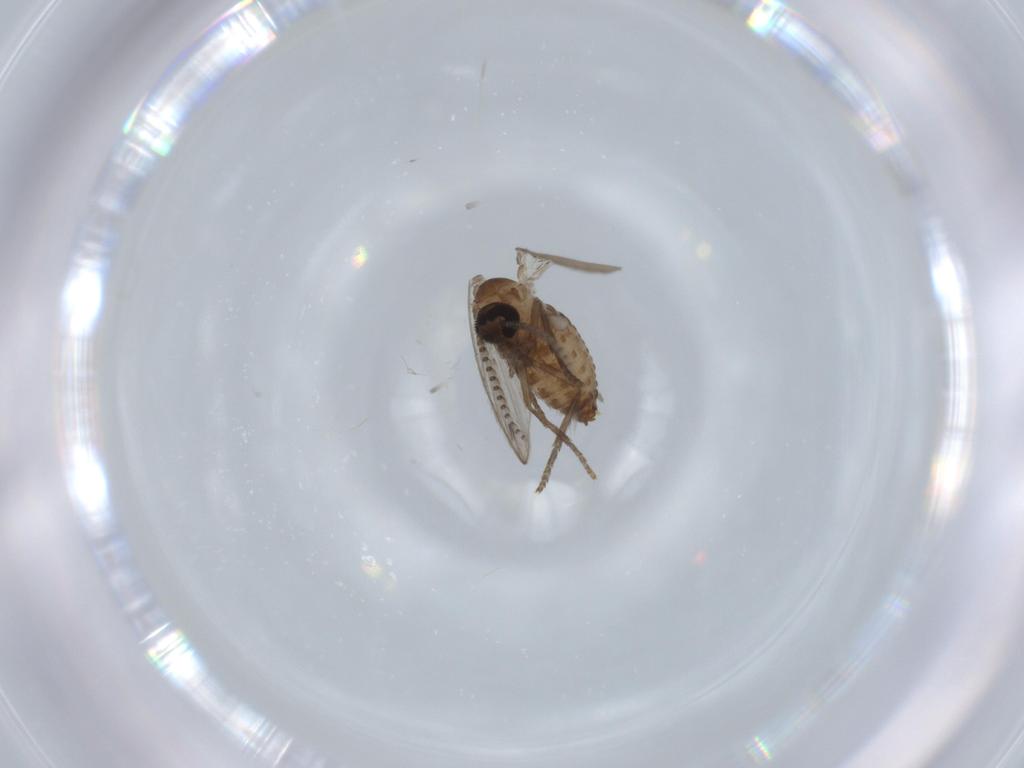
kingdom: Animalia
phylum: Arthropoda
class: Insecta
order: Diptera
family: Psychodidae
